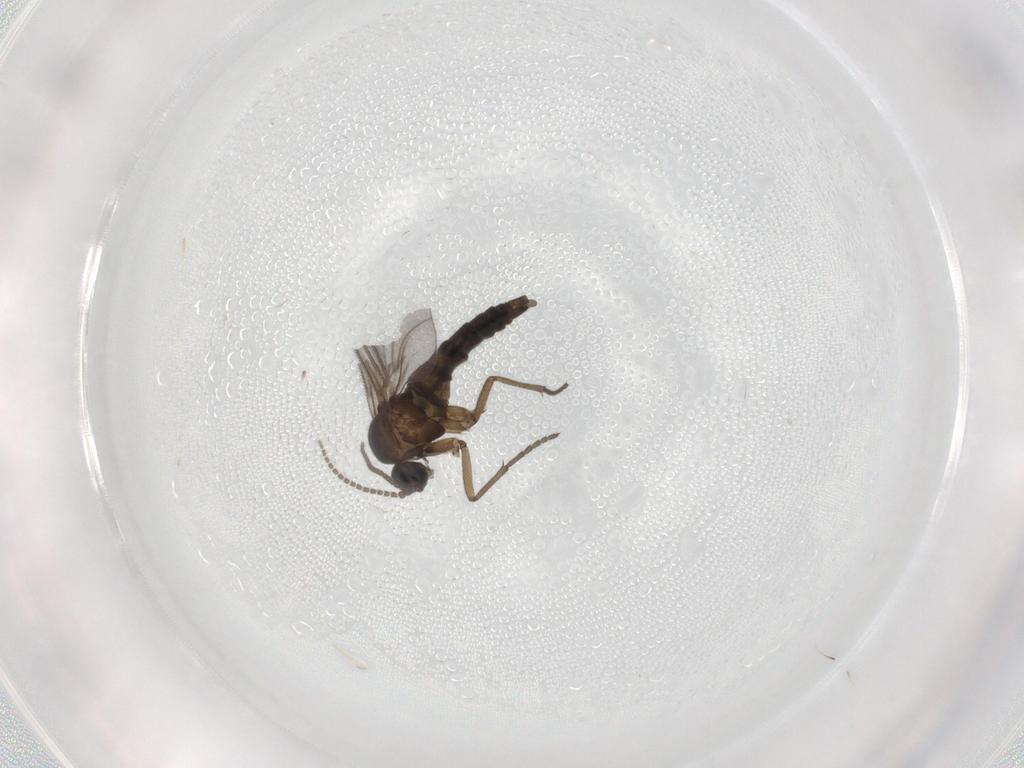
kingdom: Animalia
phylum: Arthropoda
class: Insecta
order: Diptera
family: Sciaridae
